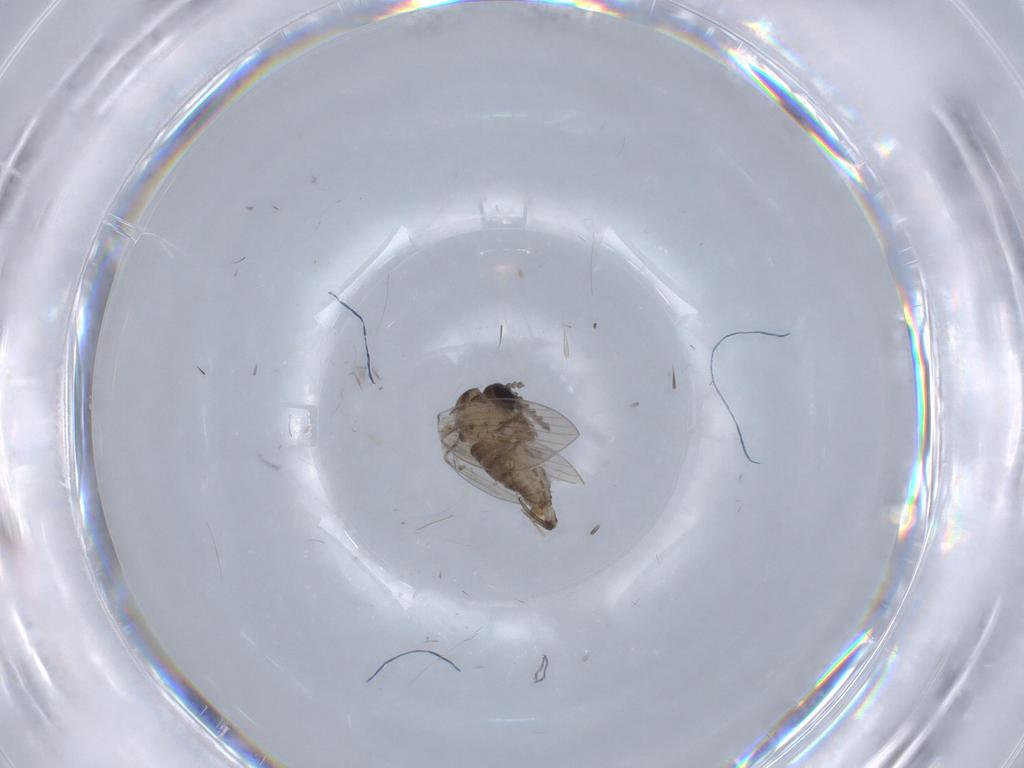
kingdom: Animalia
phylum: Arthropoda
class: Insecta
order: Diptera
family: Psychodidae
